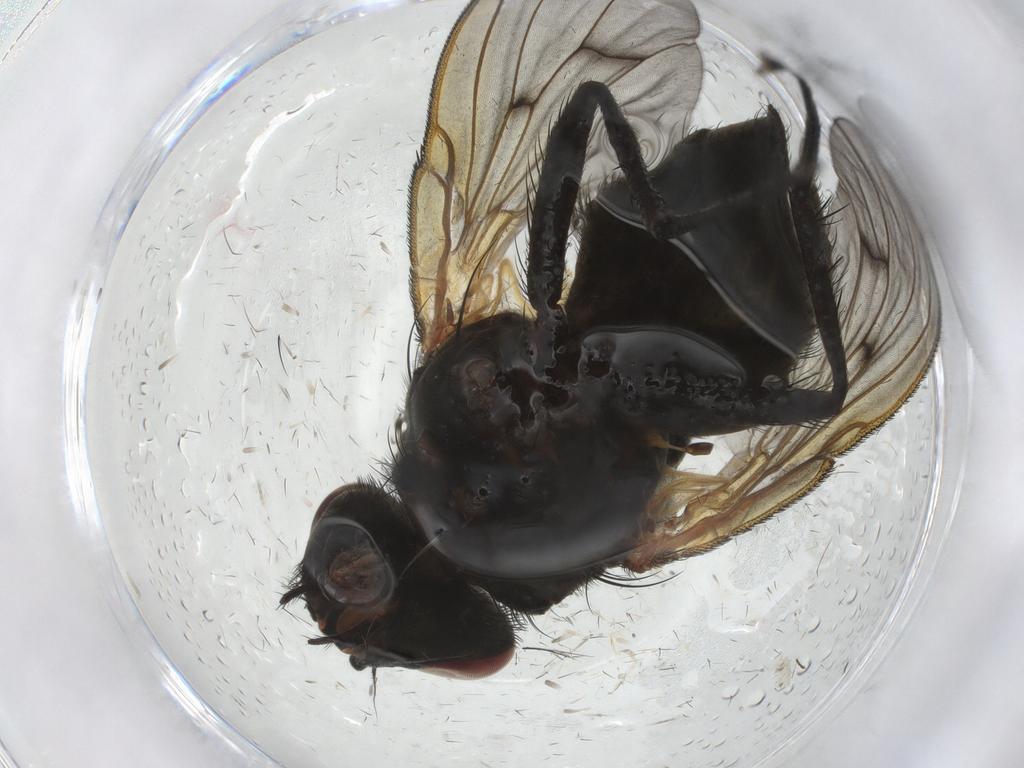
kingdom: Animalia
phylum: Arthropoda
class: Insecta
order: Diptera
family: Muscidae
